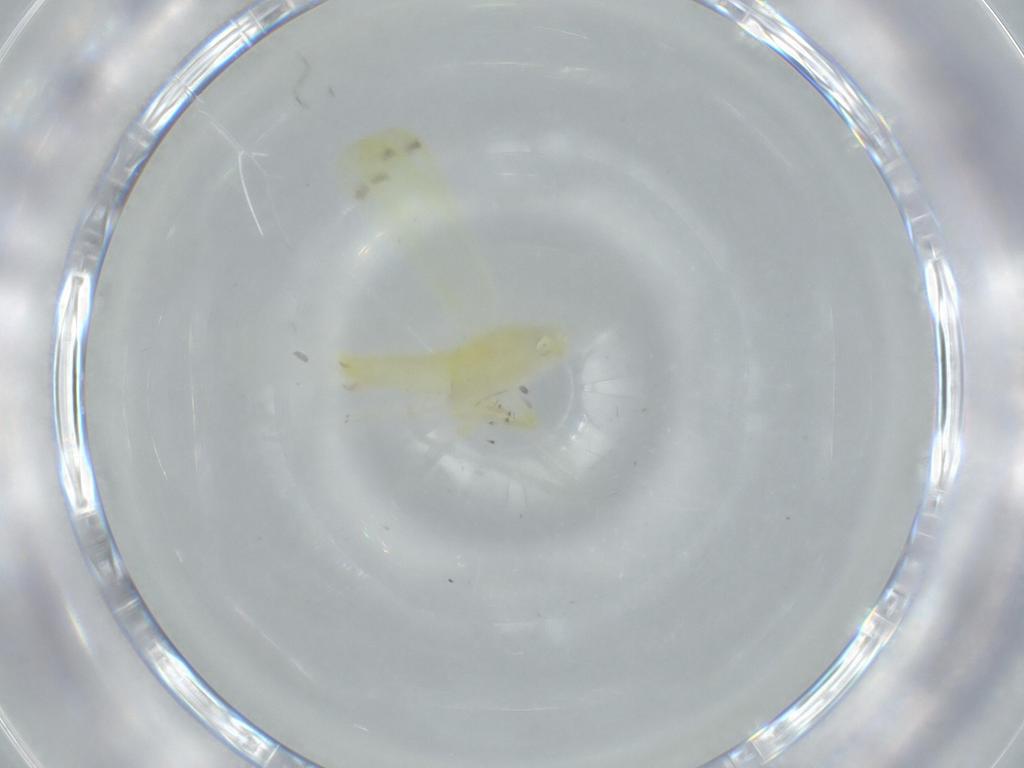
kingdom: Animalia
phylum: Arthropoda
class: Insecta
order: Hemiptera
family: Cicadellidae
